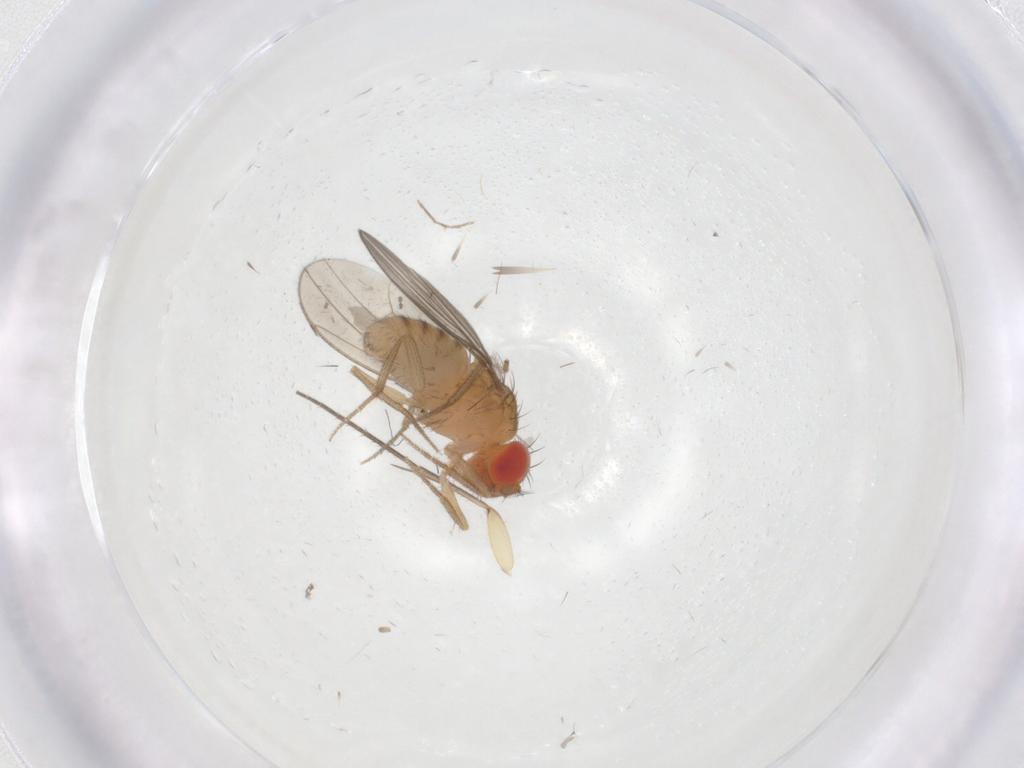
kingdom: Animalia
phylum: Arthropoda
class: Insecta
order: Diptera
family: Drosophilidae
